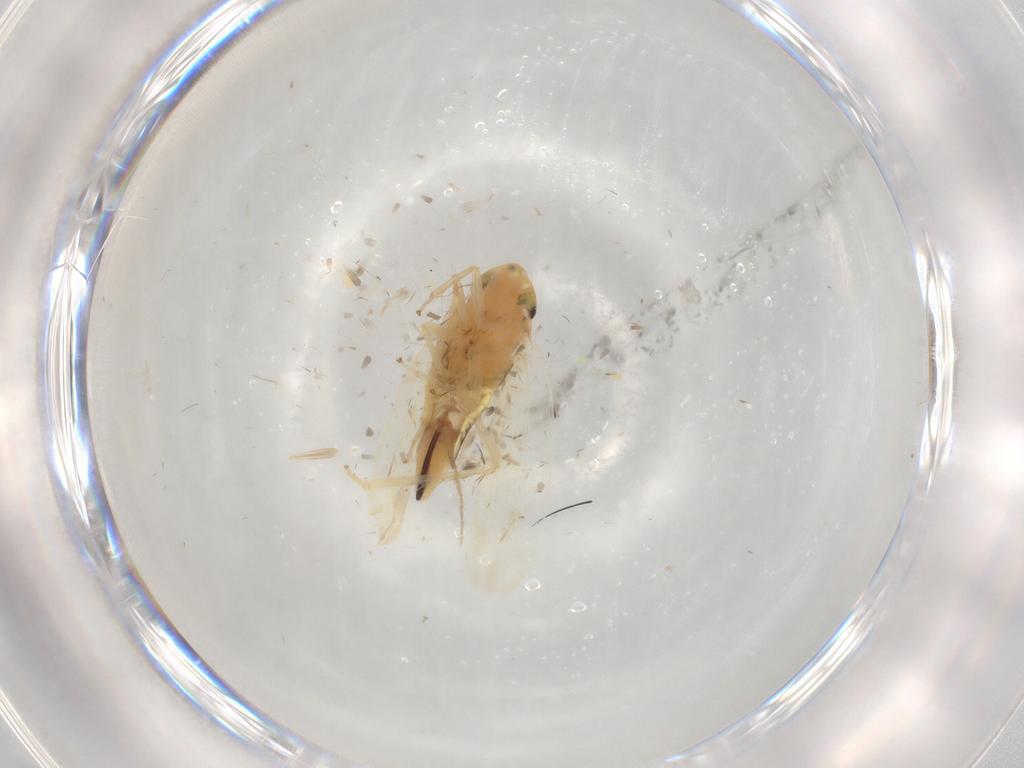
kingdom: Animalia
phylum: Arthropoda
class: Insecta
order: Hemiptera
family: Cicadellidae
